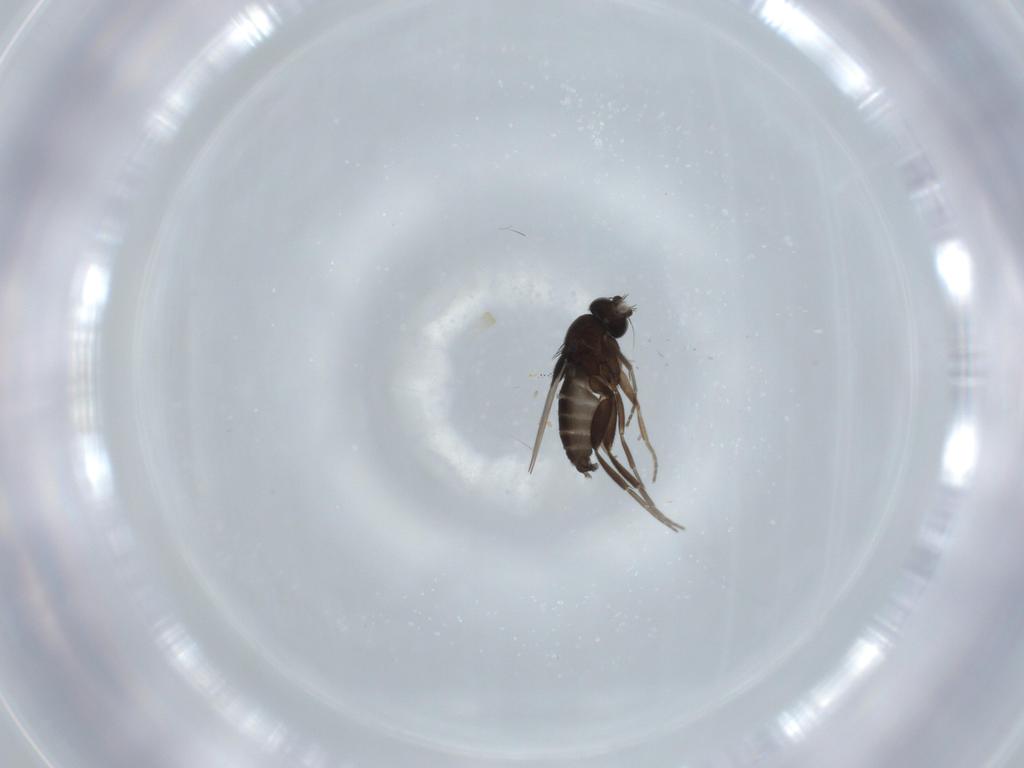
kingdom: Animalia
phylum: Arthropoda
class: Insecta
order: Diptera
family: Phoridae
